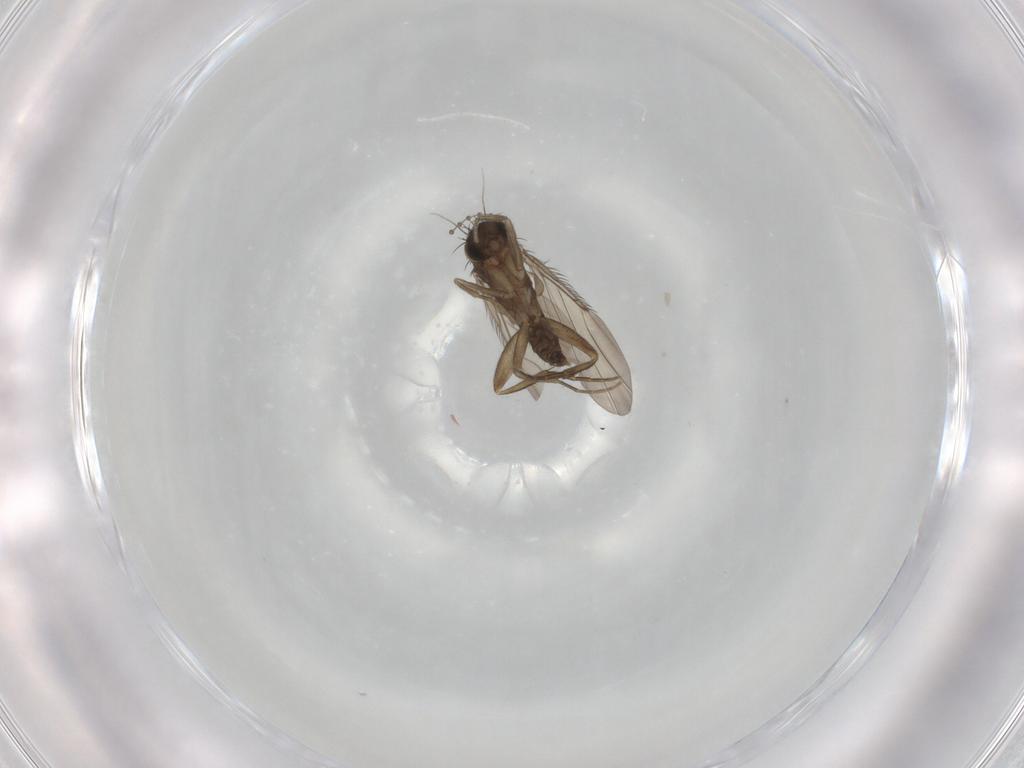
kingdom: Animalia
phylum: Arthropoda
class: Insecta
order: Diptera
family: Phoridae
